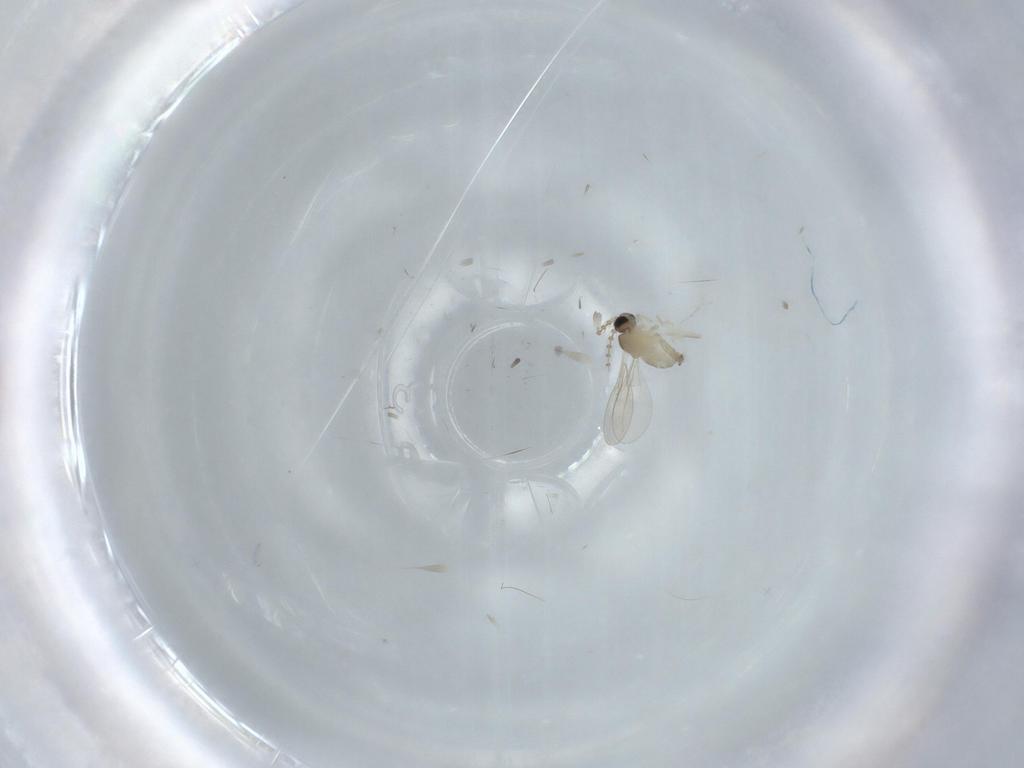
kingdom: Animalia
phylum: Arthropoda
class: Insecta
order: Diptera
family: Cecidomyiidae
